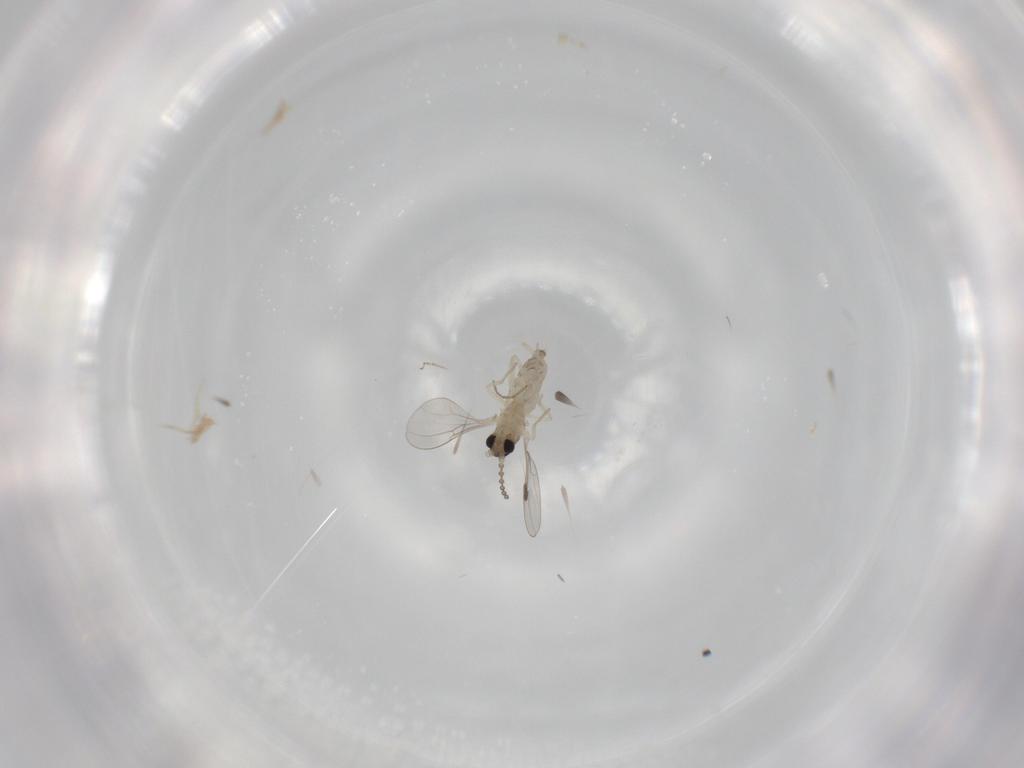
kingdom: Animalia
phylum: Arthropoda
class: Insecta
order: Diptera
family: Cecidomyiidae
